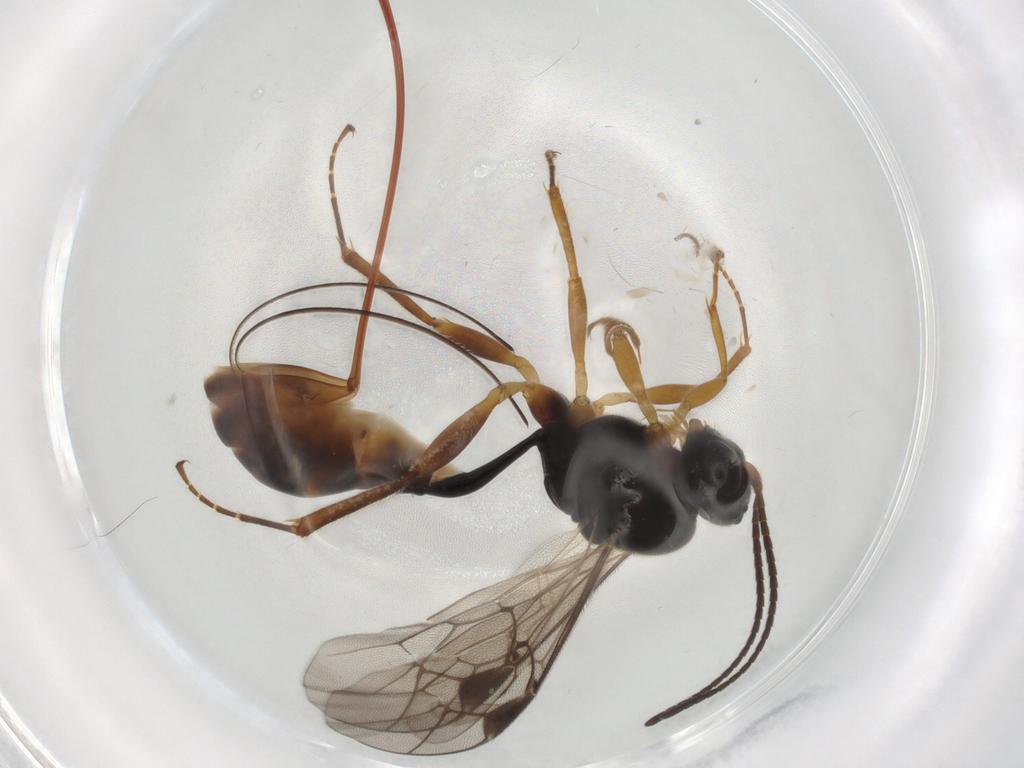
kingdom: Animalia
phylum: Arthropoda
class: Insecta
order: Hymenoptera
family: Ichneumonidae
